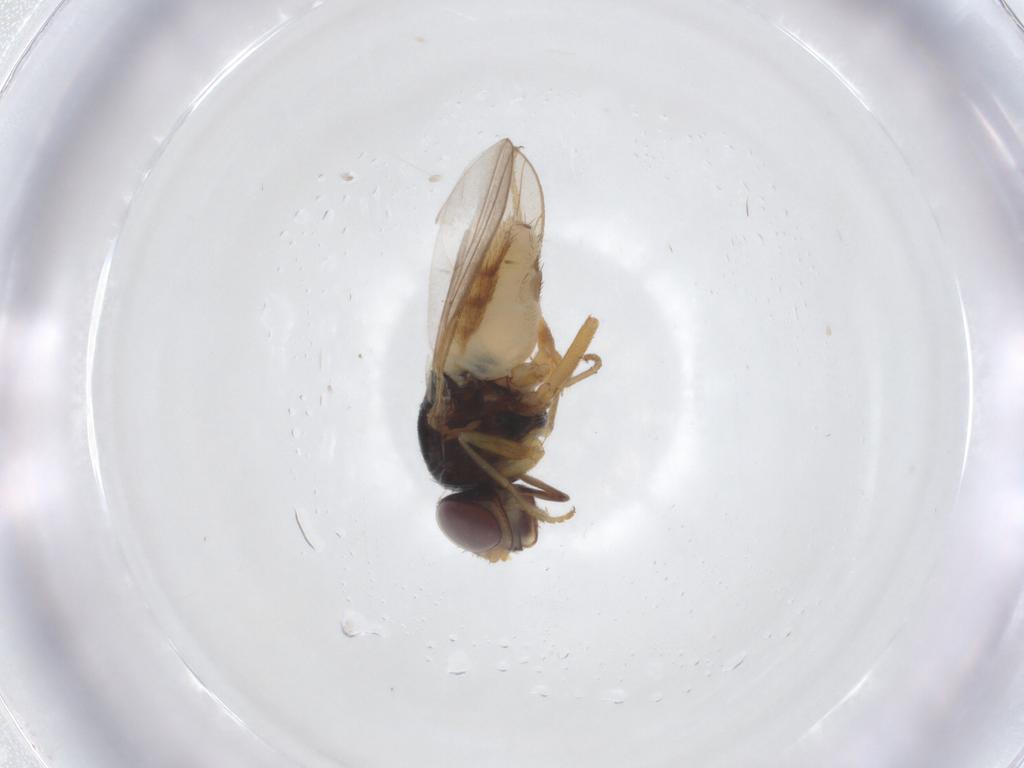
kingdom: Animalia
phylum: Arthropoda
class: Insecta
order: Diptera
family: Chloropidae
